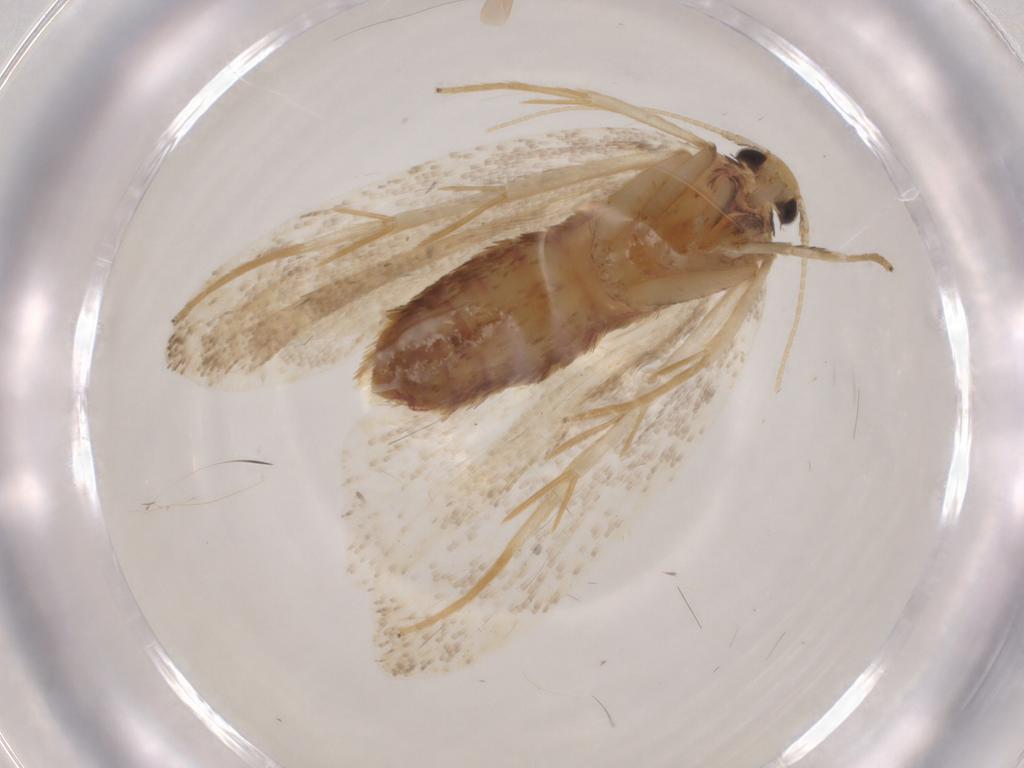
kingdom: Animalia
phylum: Arthropoda
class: Insecta
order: Lepidoptera
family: Lecithoceridae
